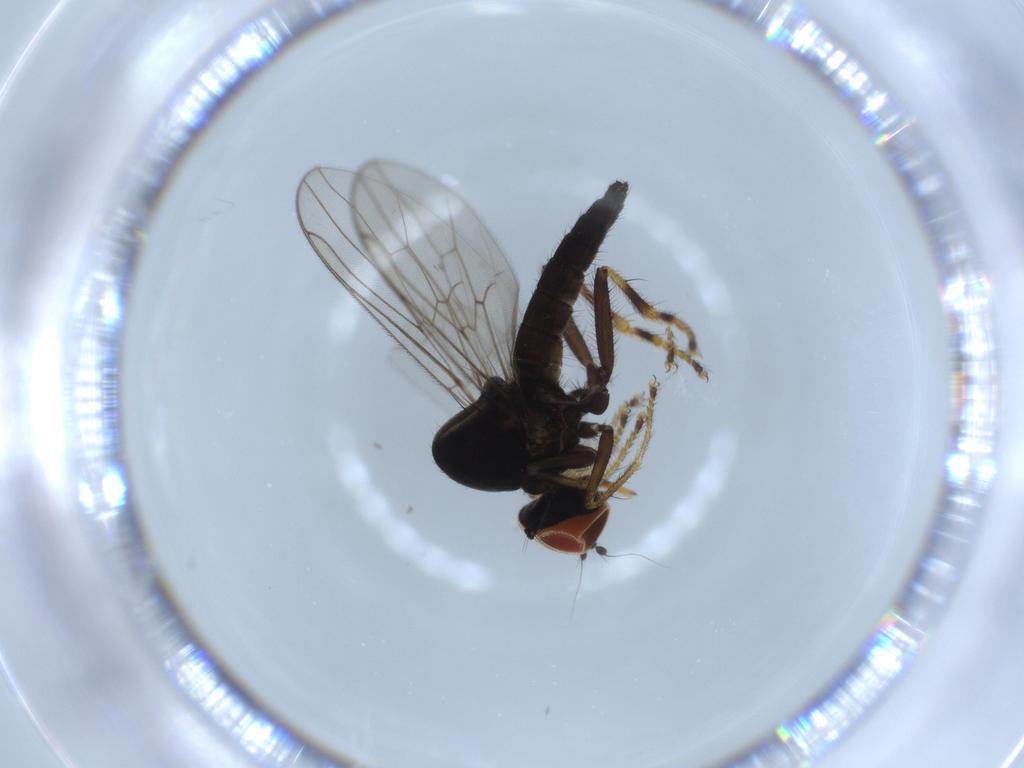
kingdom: Animalia
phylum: Arthropoda
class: Insecta
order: Diptera
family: Hybotidae
